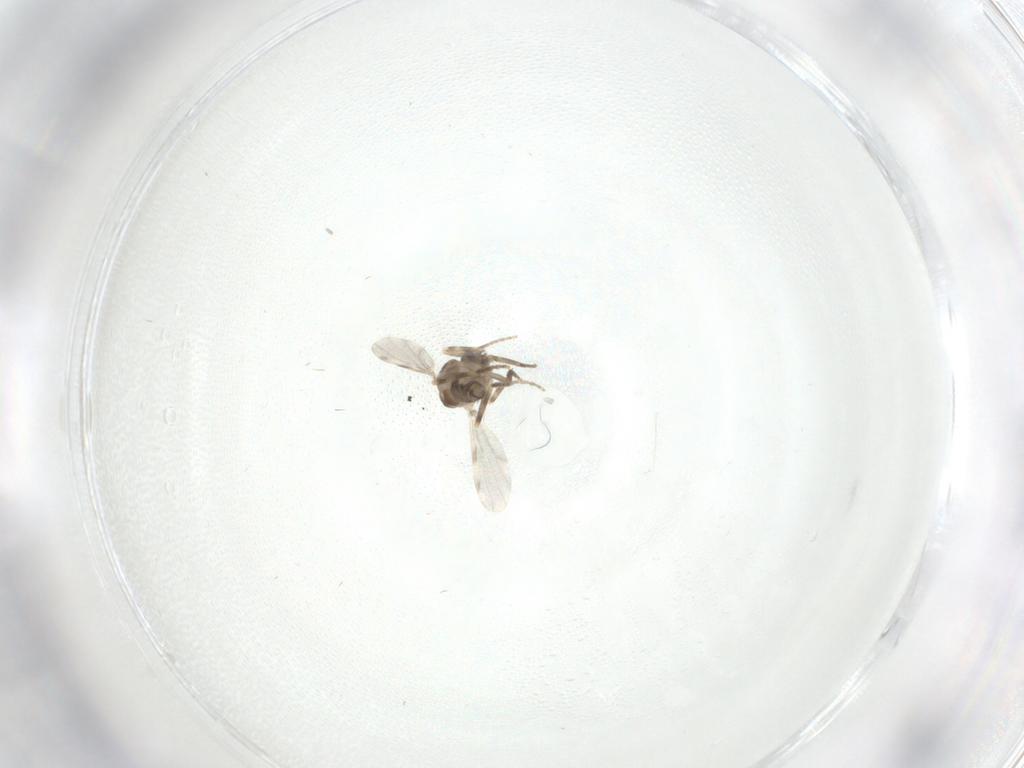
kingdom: Animalia
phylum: Arthropoda
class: Insecta
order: Diptera
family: Ceratopogonidae
